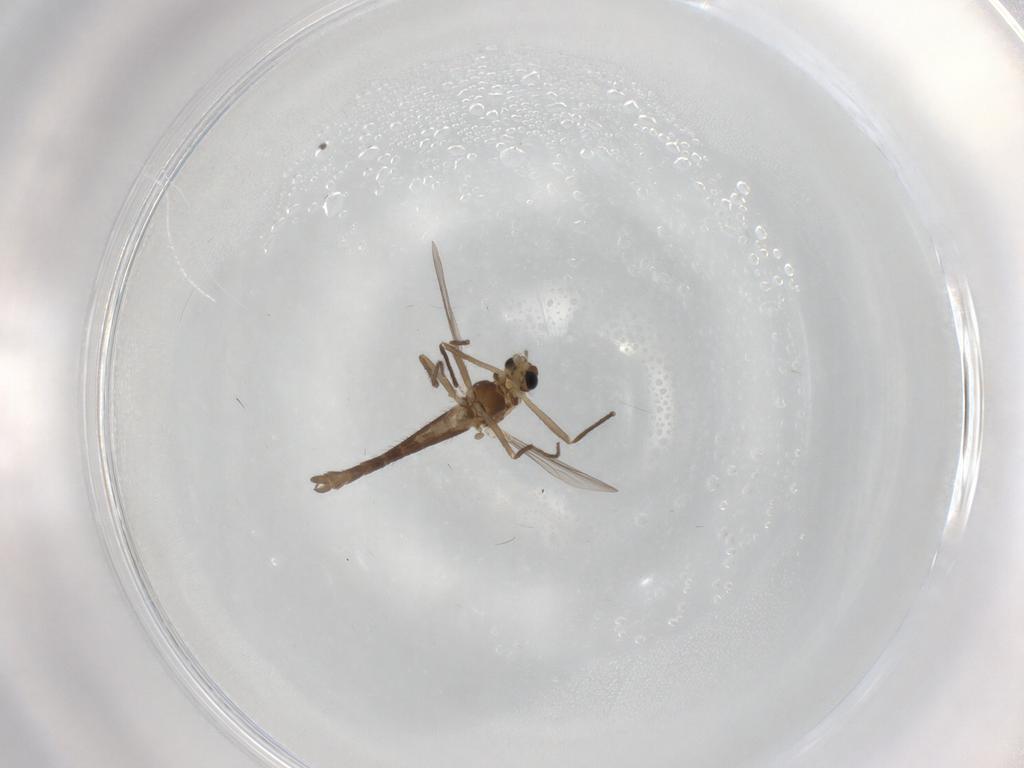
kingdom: Animalia
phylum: Arthropoda
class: Insecta
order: Diptera
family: Chironomidae
